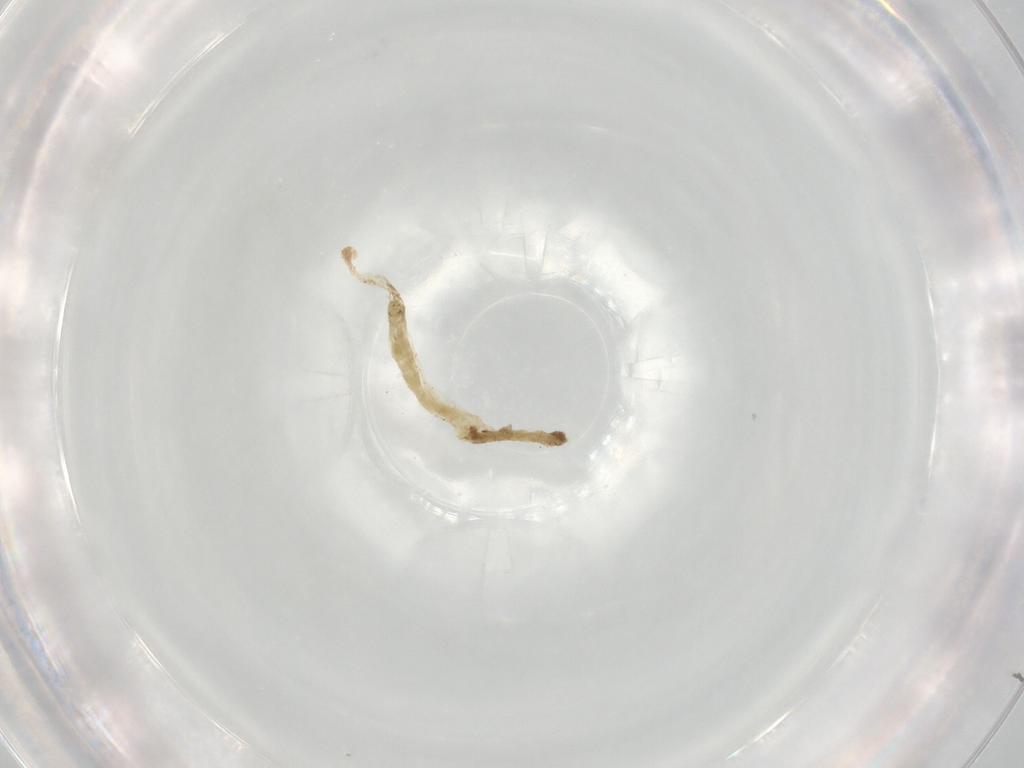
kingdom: Animalia
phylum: Arthropoda
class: Insecta
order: Diptera
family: Chironomidae
